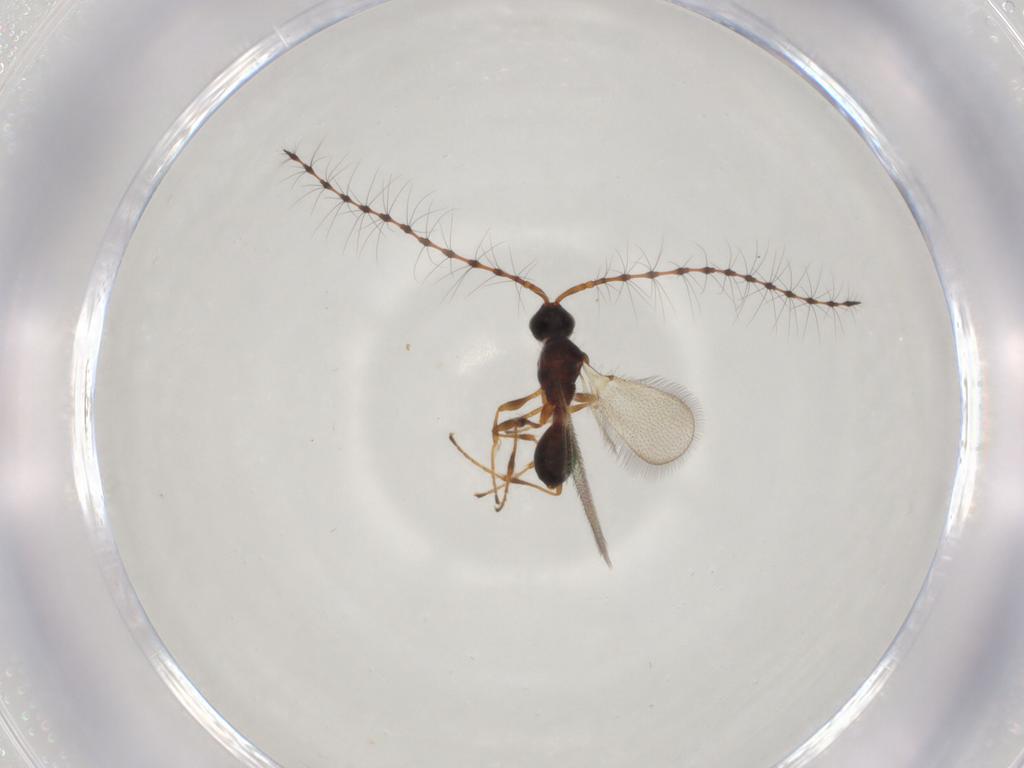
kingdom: Animalia
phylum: Arthropoda
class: Insecta
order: Hymenoptera
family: Diapriidae
